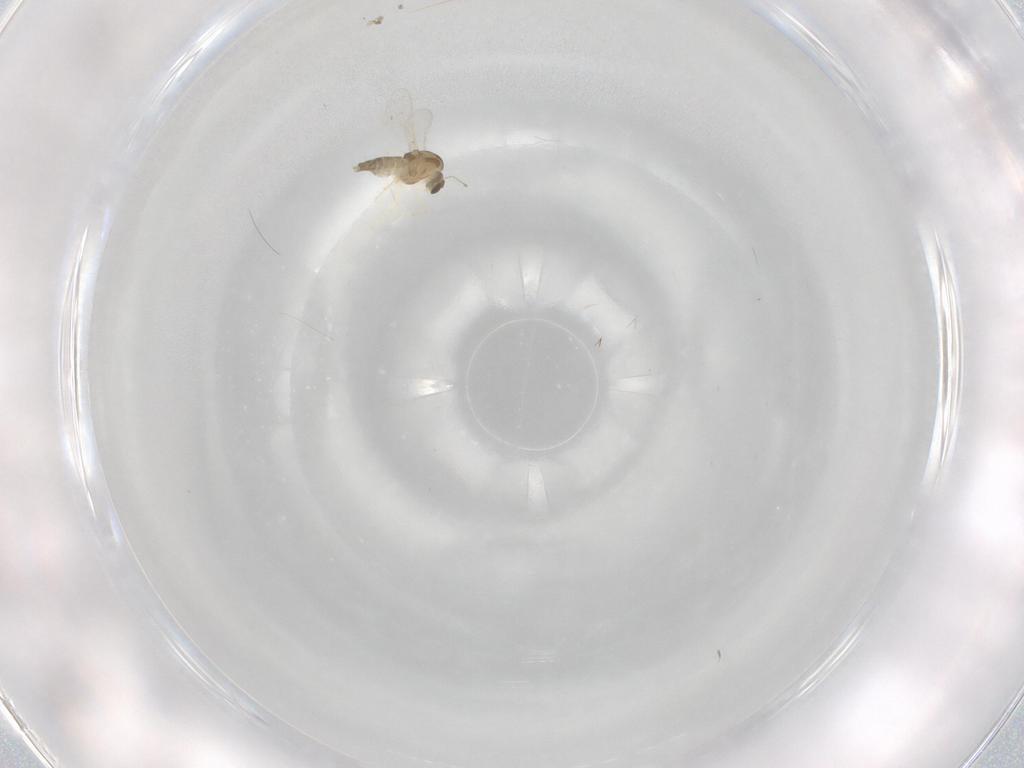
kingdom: Animalia
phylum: Arthropoda
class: Insecta
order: Diptera
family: Chironomidae
